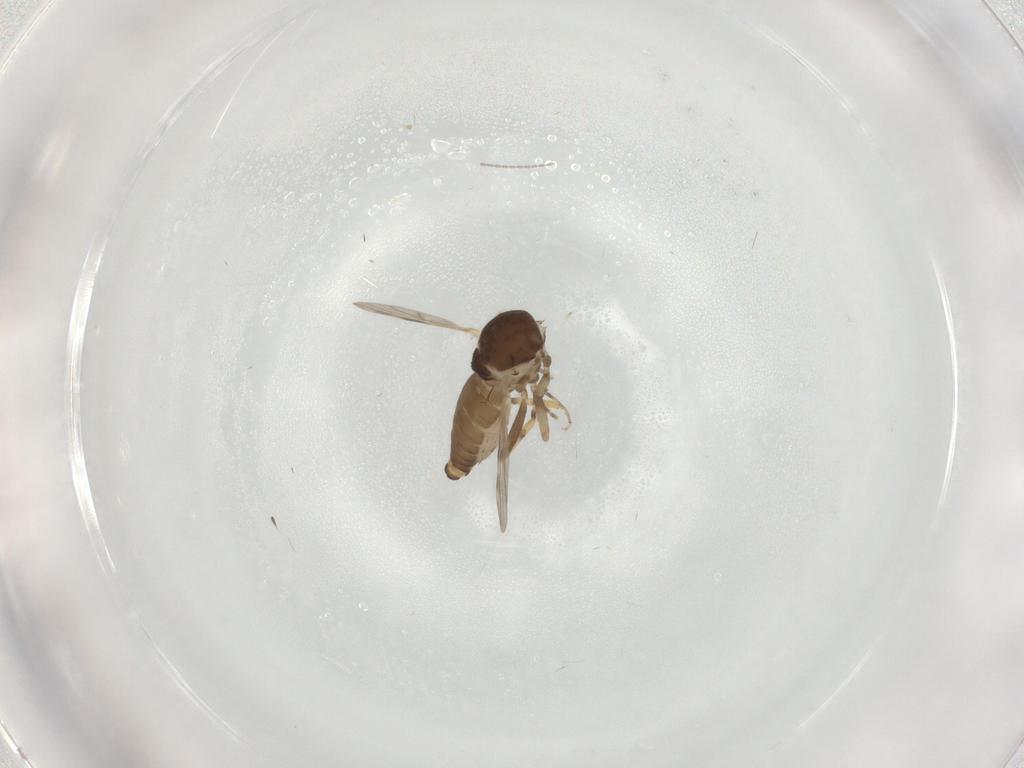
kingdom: Animalia
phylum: Arthropoda
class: Insecta
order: Diptera
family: Ceratopogonidae
